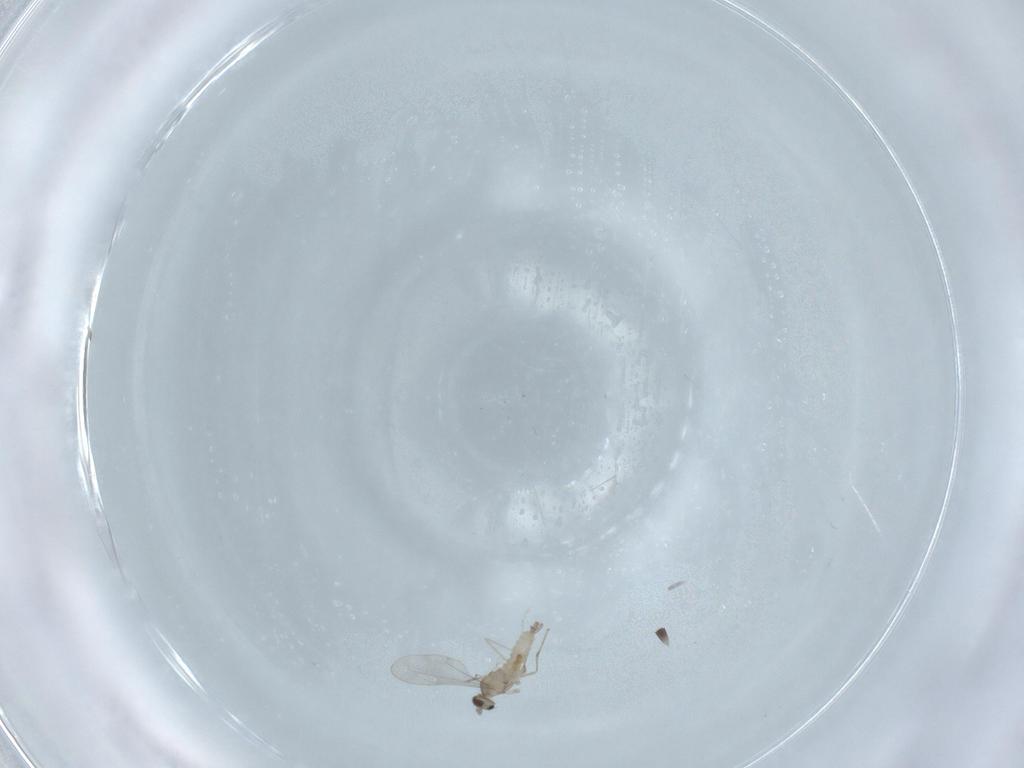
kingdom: Animalia
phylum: Arthropoda
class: Insecta
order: Diptera
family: Chironomidae
